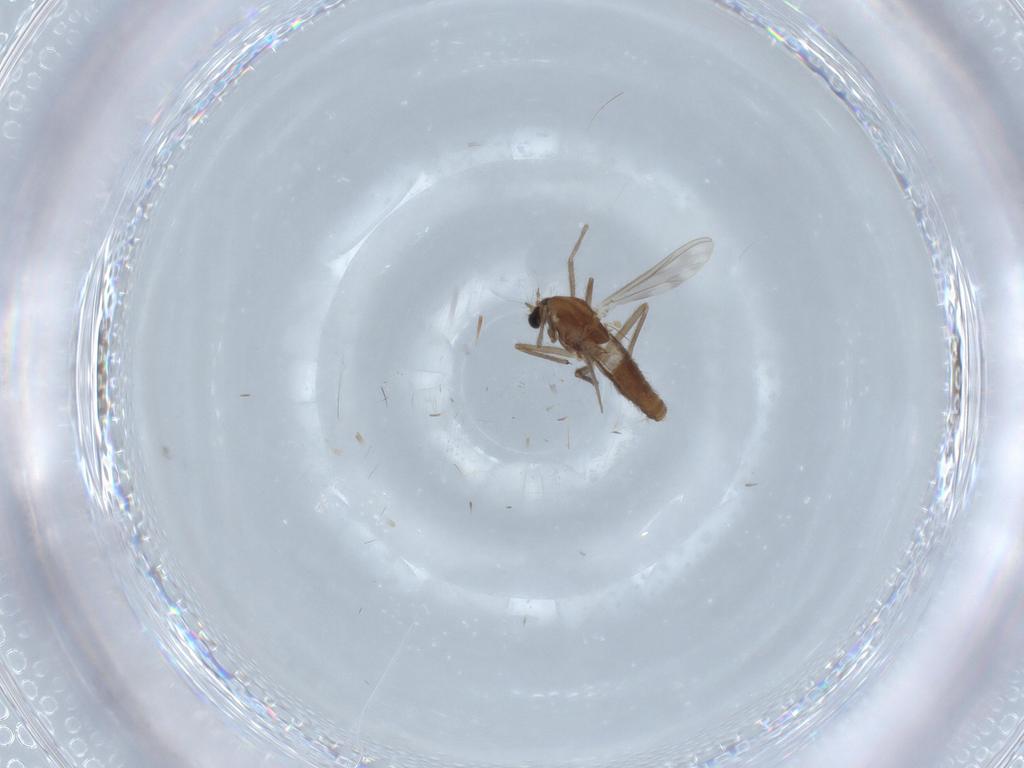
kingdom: Animalia
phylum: Arthropoda
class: Insecta
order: Diptera
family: Chironomidae
